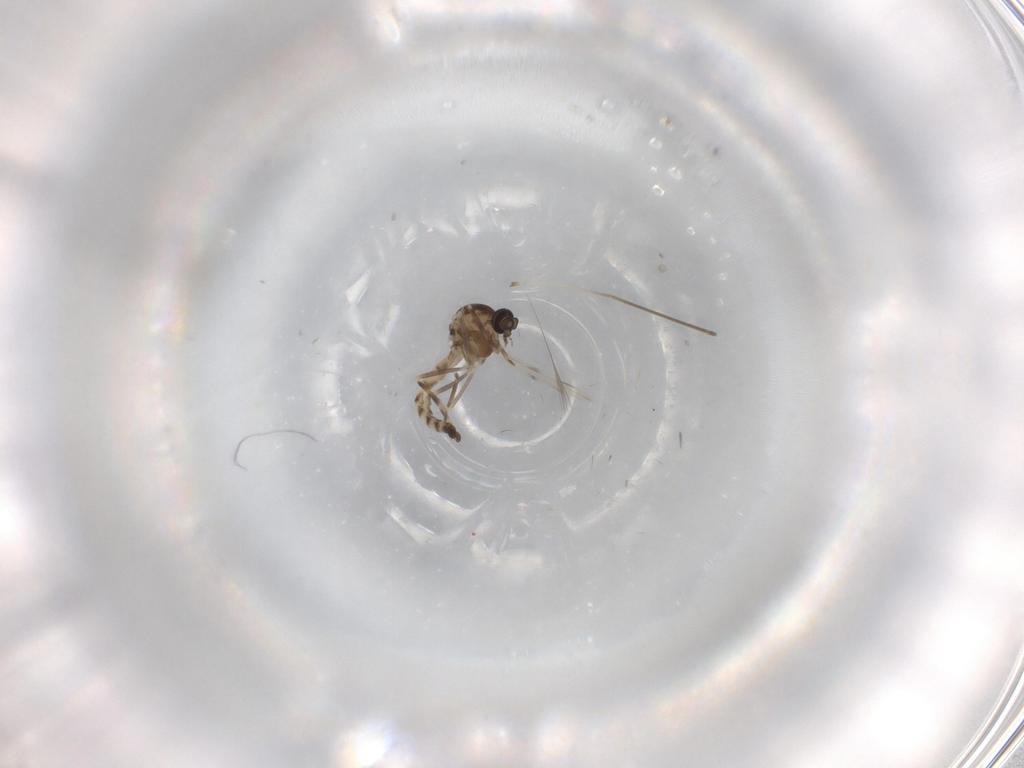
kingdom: Animalia
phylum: Arthropoda
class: Insecta
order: Diptera
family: Ceratopogonidae
